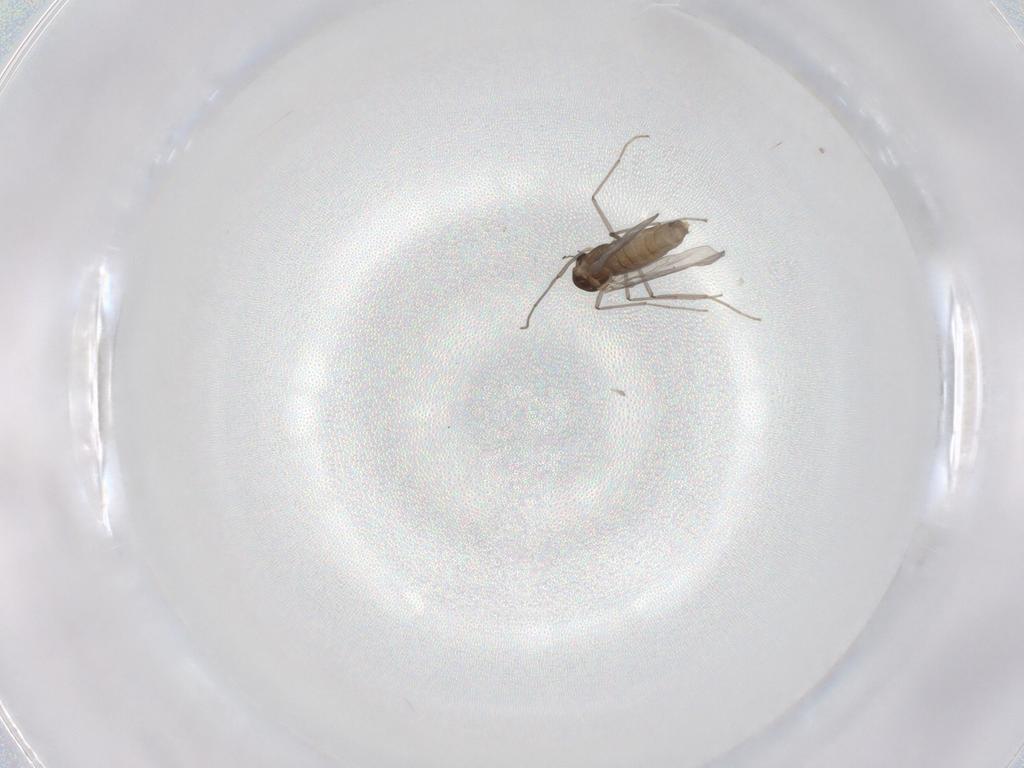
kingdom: Animalia
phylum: Arthropoda
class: Insecta
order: Diptera
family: Chironomidae
